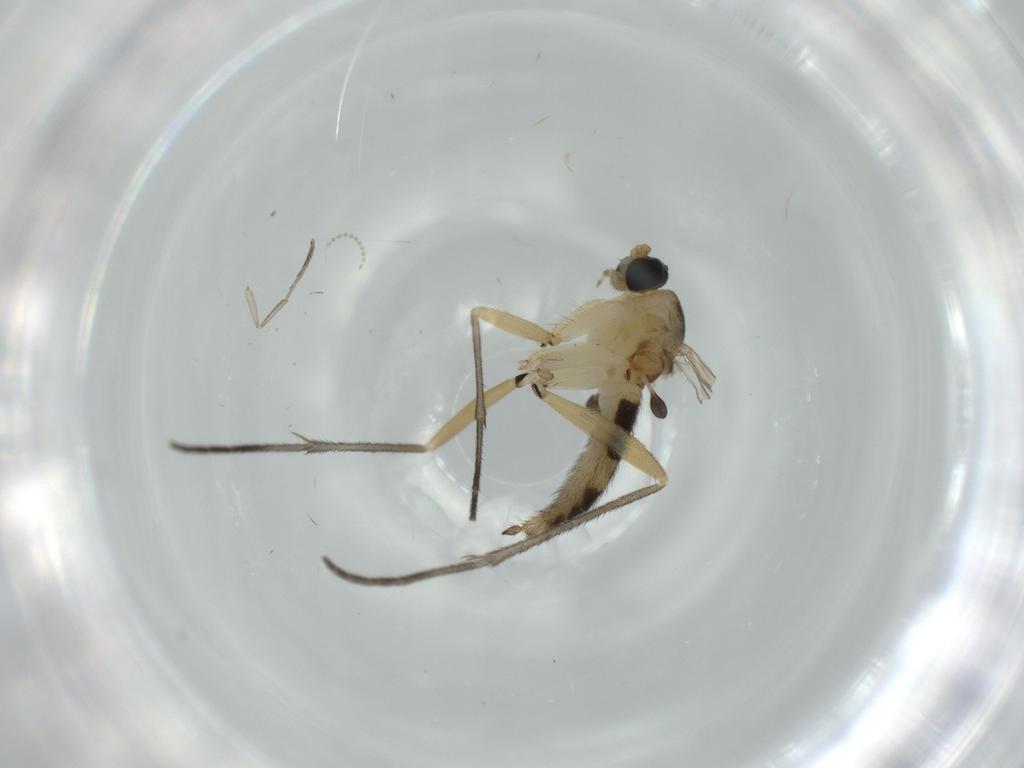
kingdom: Animalia
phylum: Arthropoda
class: Insecta
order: Diptera
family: Sciaridae
